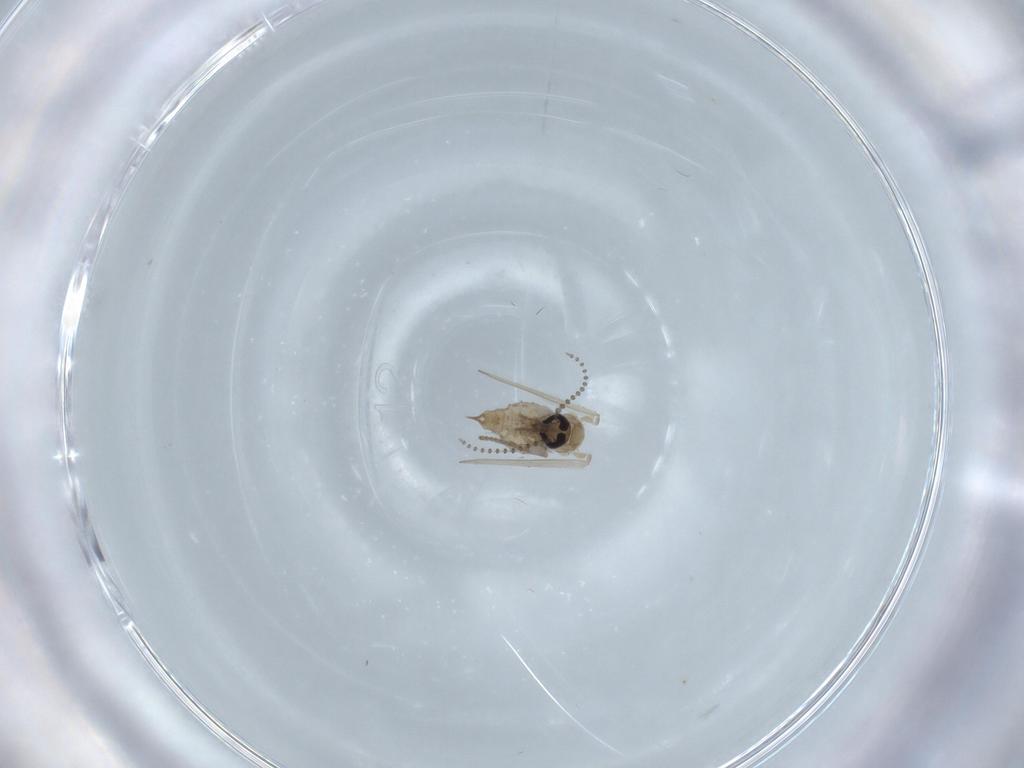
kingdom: Animalia
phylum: Arthropoda
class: Insecta
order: Diptera
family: Psychodidae
